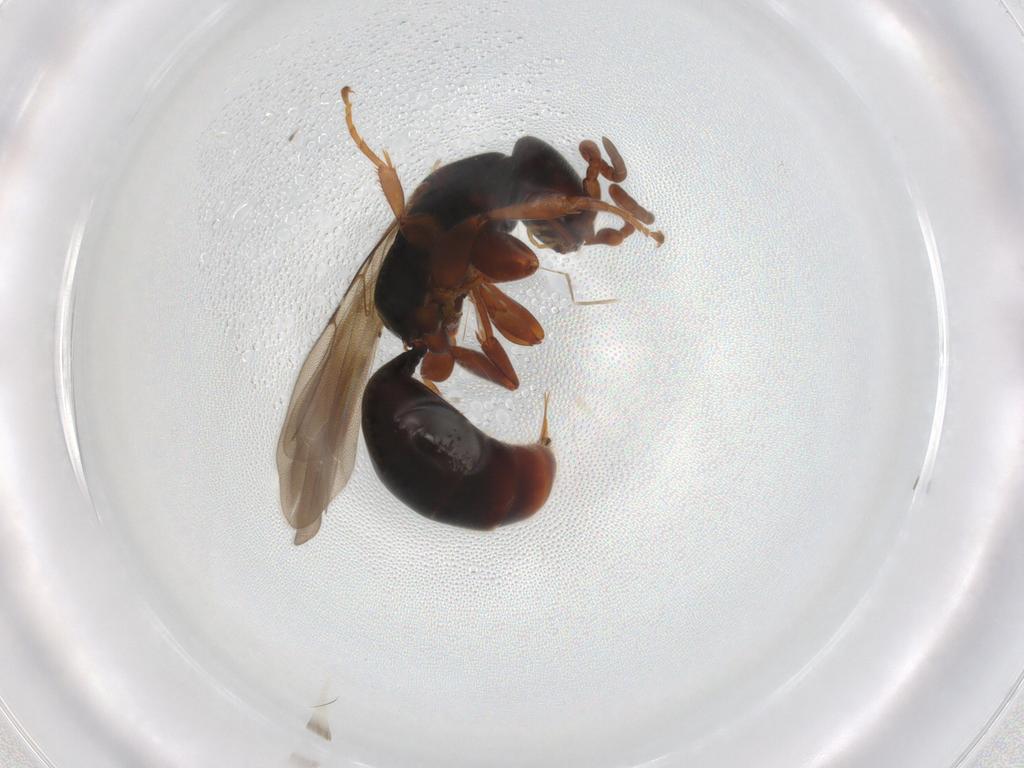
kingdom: Animalia
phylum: Arthropoda
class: Insecta
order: Hymenoptera
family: Bethylidae
